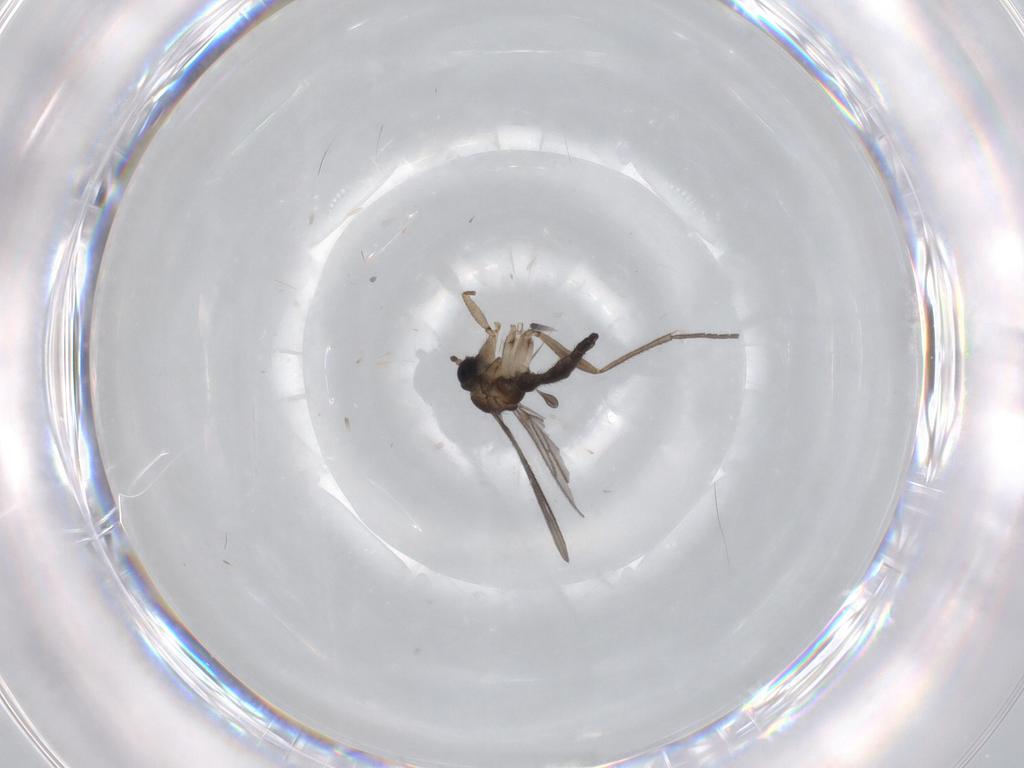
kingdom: Animalia
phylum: Arthropoda
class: Insecta
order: Diptera
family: Sciaridae
